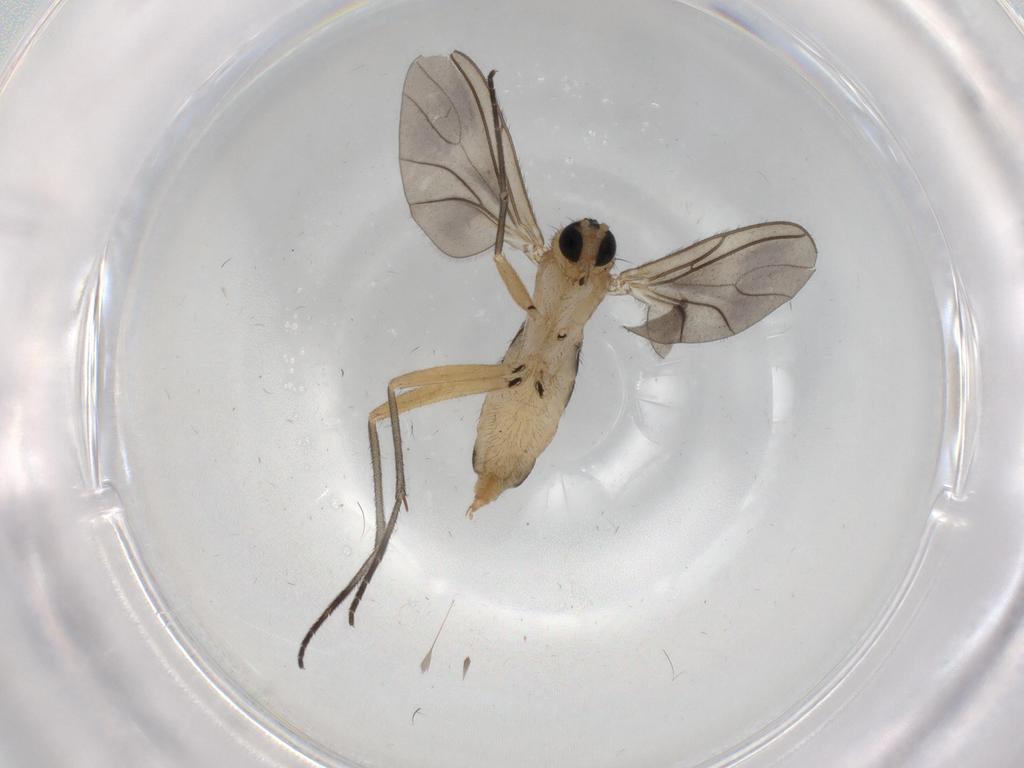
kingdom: Animalia
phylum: Arthropoda
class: Insecta
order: Diptera
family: Sciaridae
